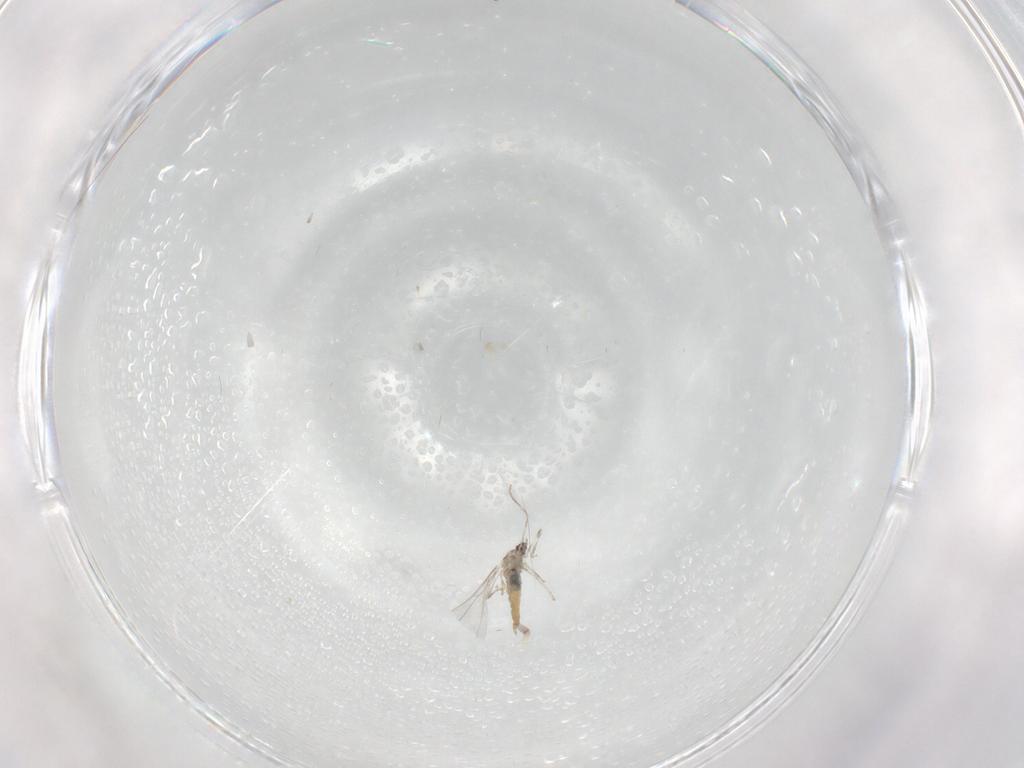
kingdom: Animalia
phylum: Arthropoda
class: Insecta
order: Diptera
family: Chironomidae
